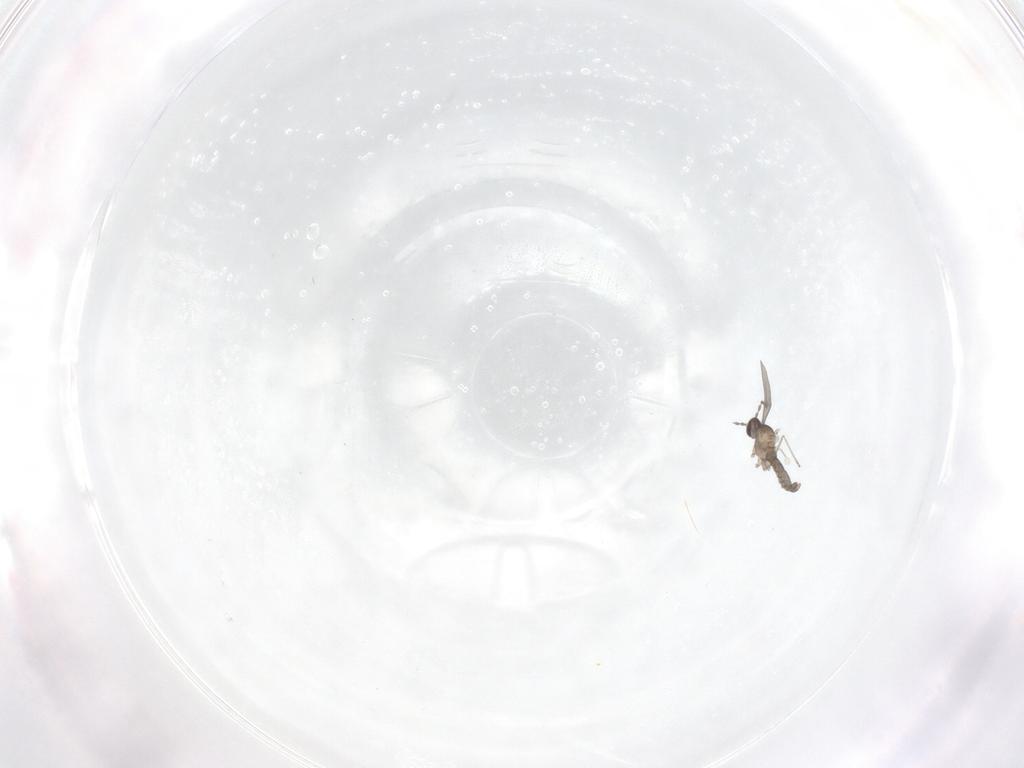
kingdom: Animalia
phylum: Arthropoda
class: Insecta
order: Diptera
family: Cecidomyiidae
